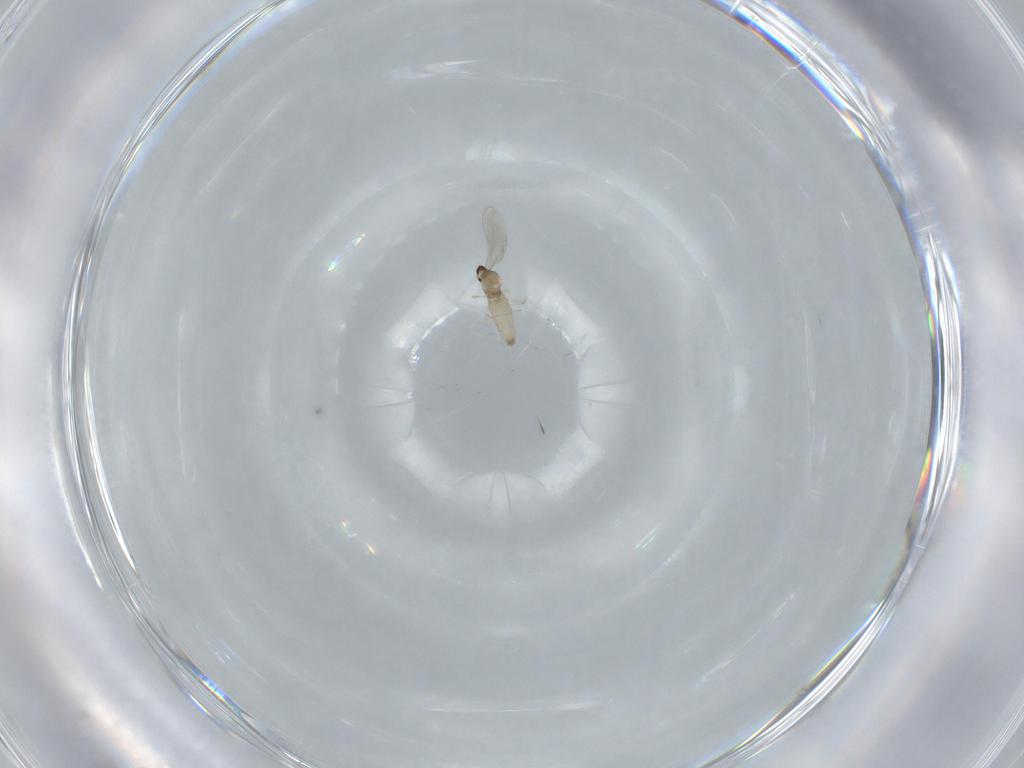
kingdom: Animalia
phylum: Arthropoda
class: Insecta
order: Diptera
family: Cecidomyiidae
